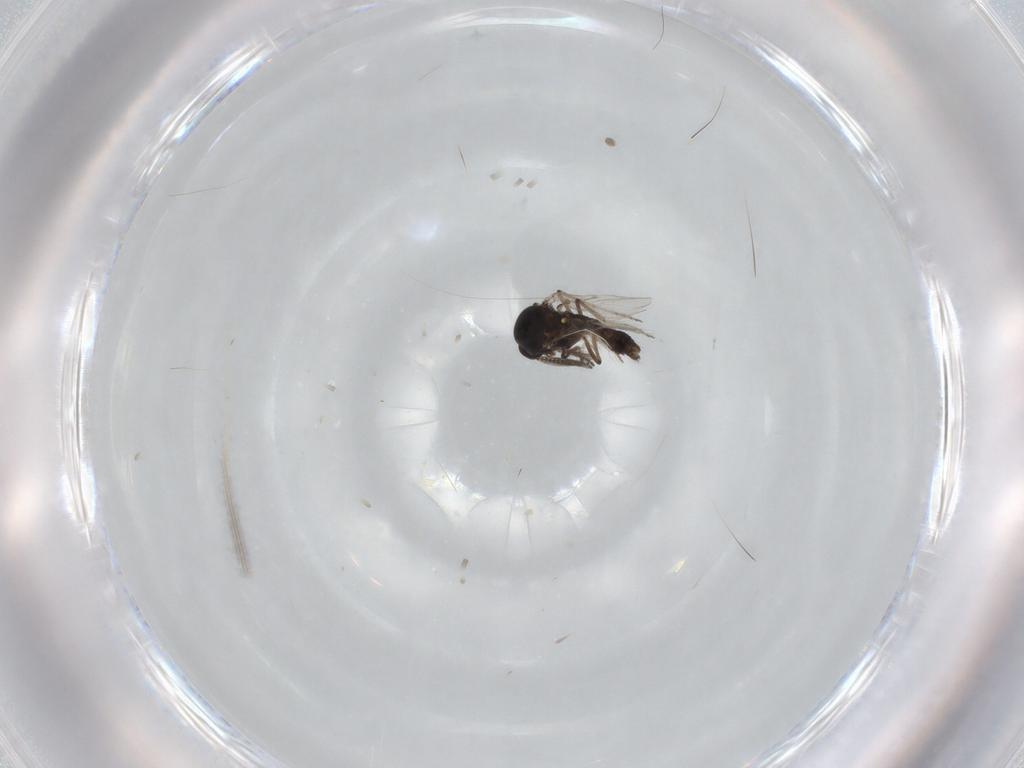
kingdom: Animalia
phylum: Arthropoda
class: Insecta
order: Diptera
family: Ceratopogonidae
